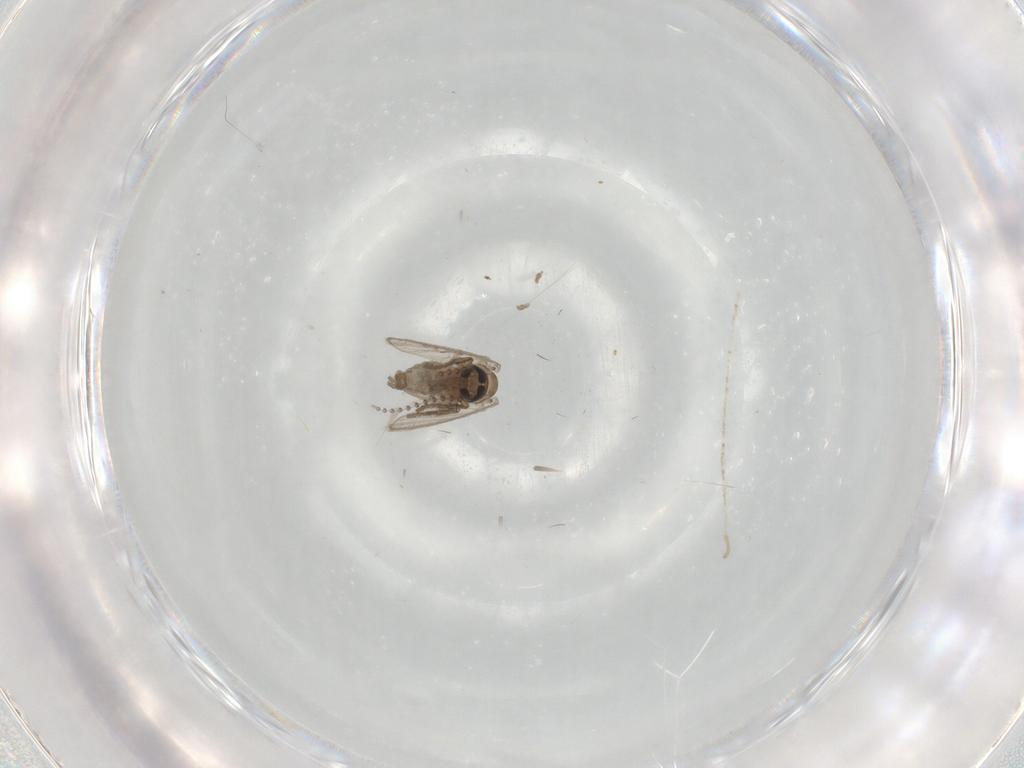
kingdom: Animalia
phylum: Arthropoda
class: Insecta
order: Diptera
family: Psychodidae
